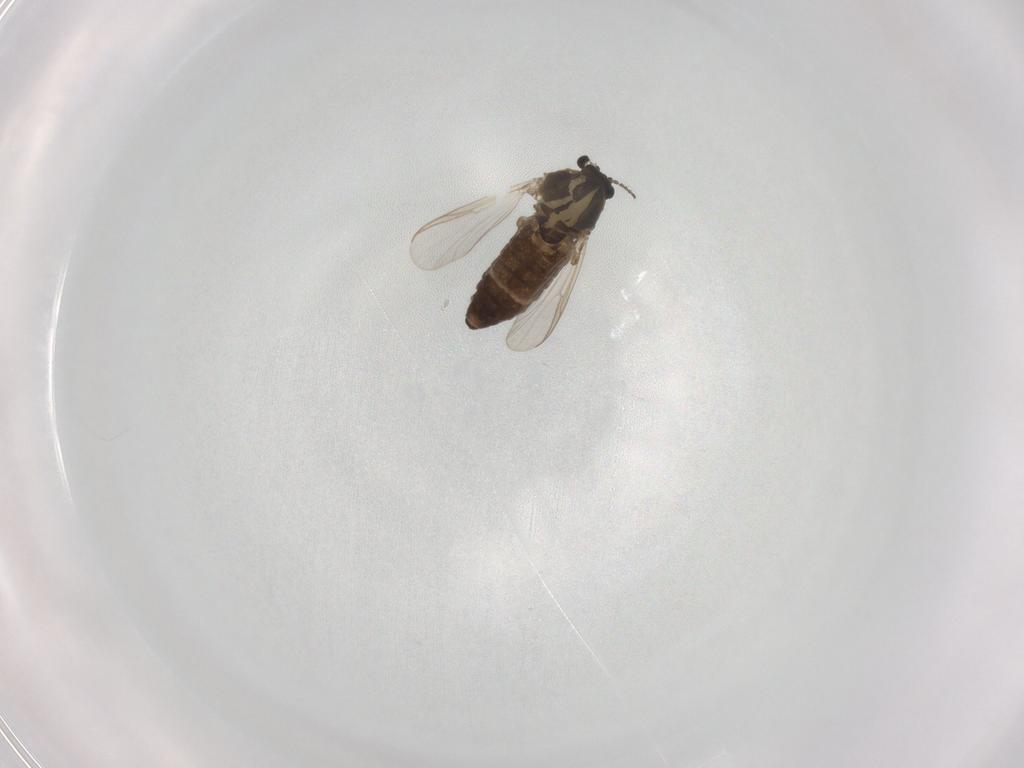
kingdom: Animalia
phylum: Arthropoda
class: Insecta
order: Diptera
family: Chironomidae
